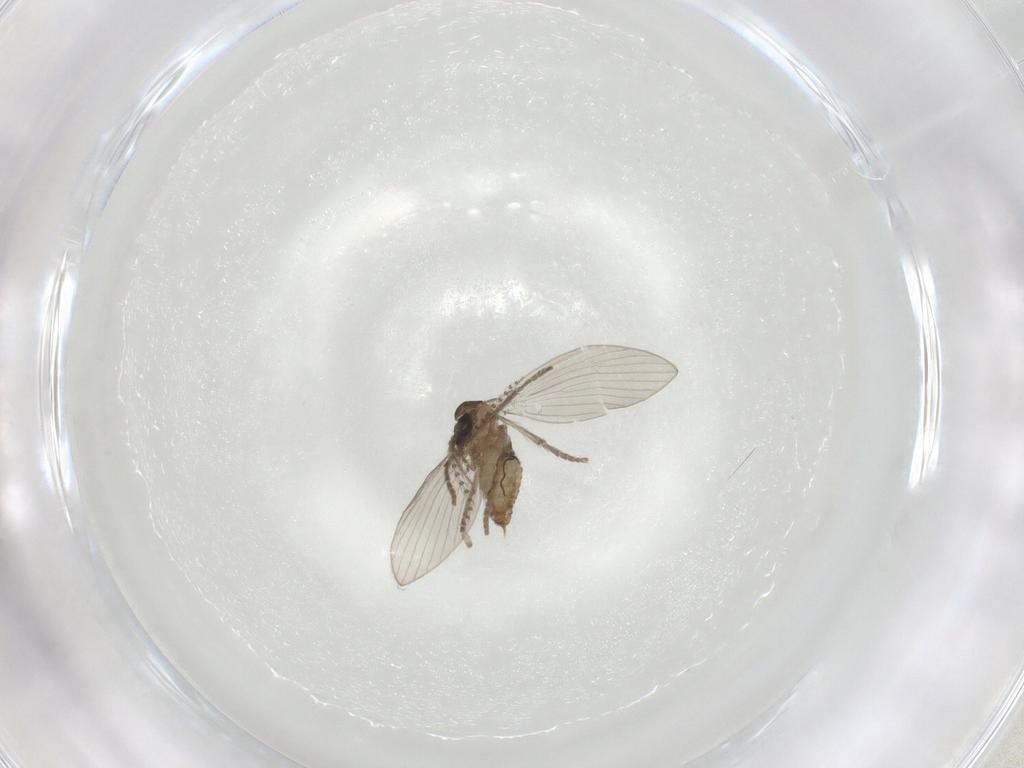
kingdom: Animalia
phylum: Arthropoda
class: Insecta
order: Diptera
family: Psychodidae
